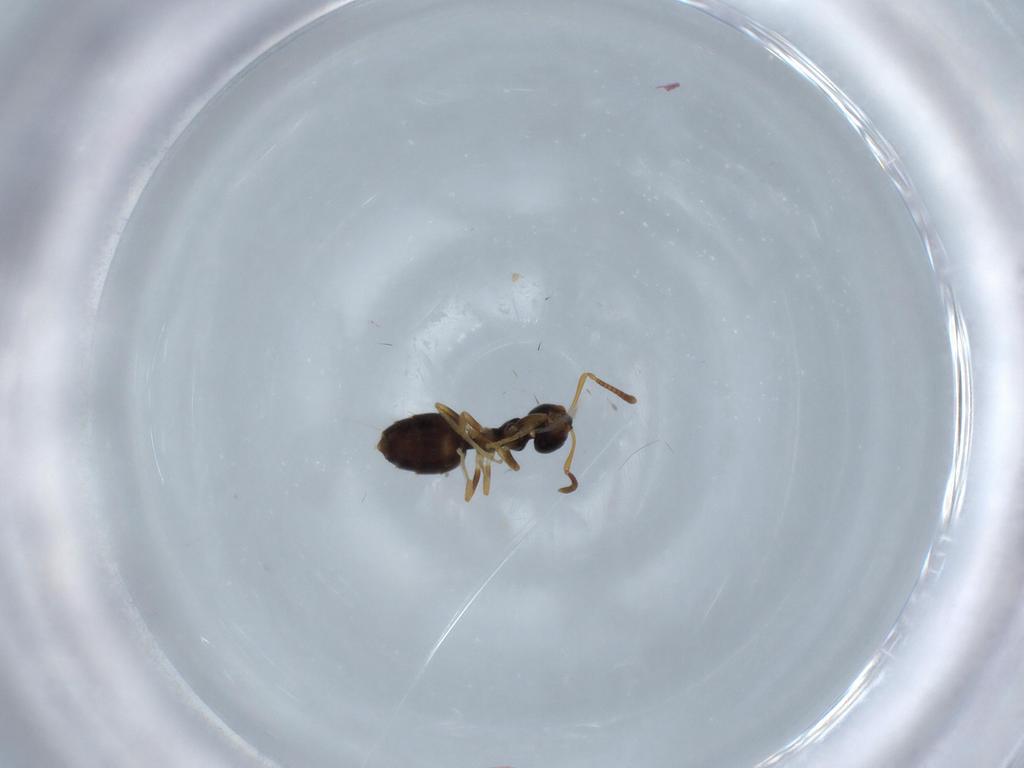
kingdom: Animalia
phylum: Arthropoda
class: Insecta
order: Hymenoptera
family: Formicidae
